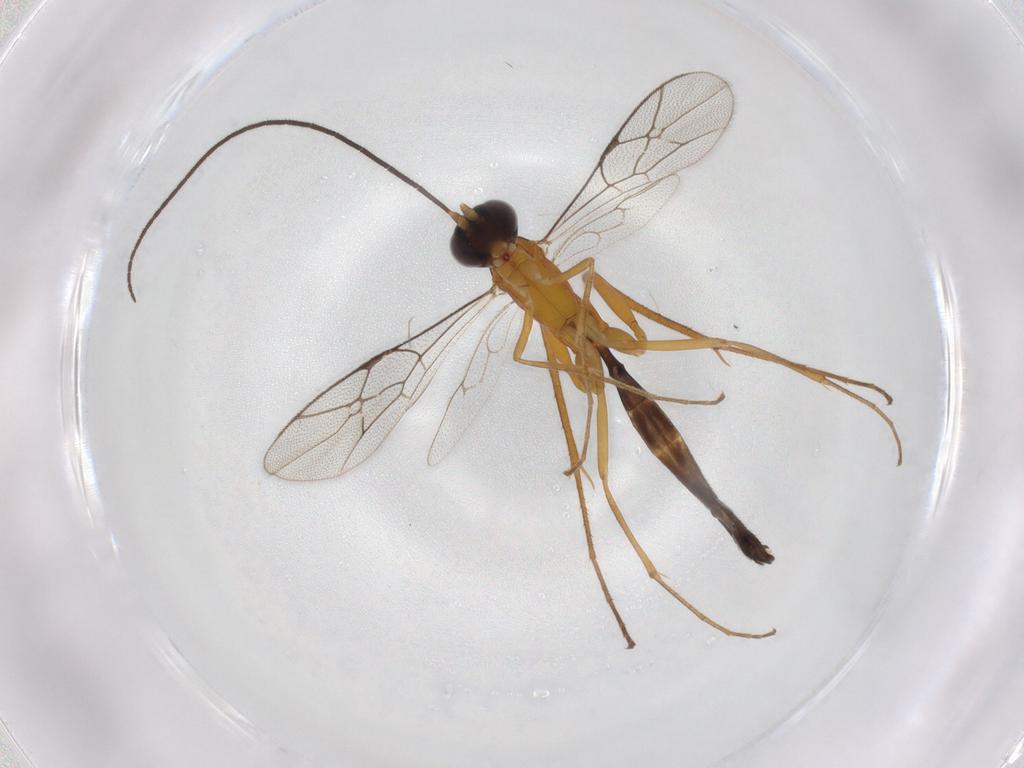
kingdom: Animalia
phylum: Arthropoda
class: Insecta
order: Hymenoptera
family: Ichneumonidae
